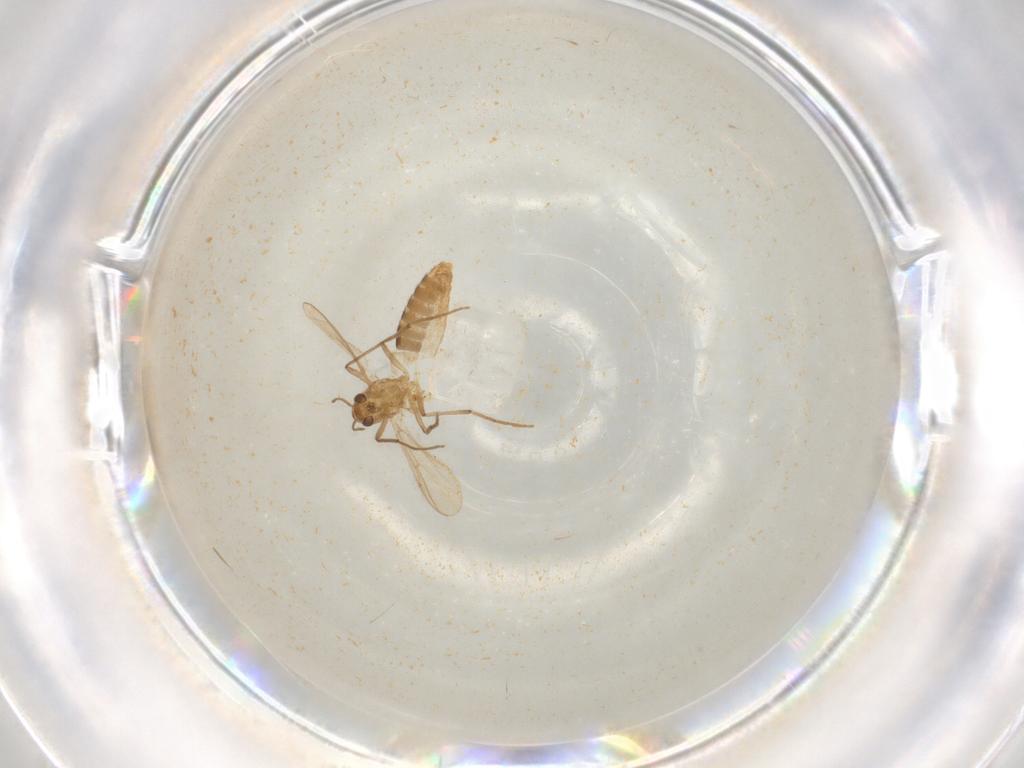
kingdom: Animalia
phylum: Arthropoda
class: Insecta
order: Diptera
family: Chironomidae
